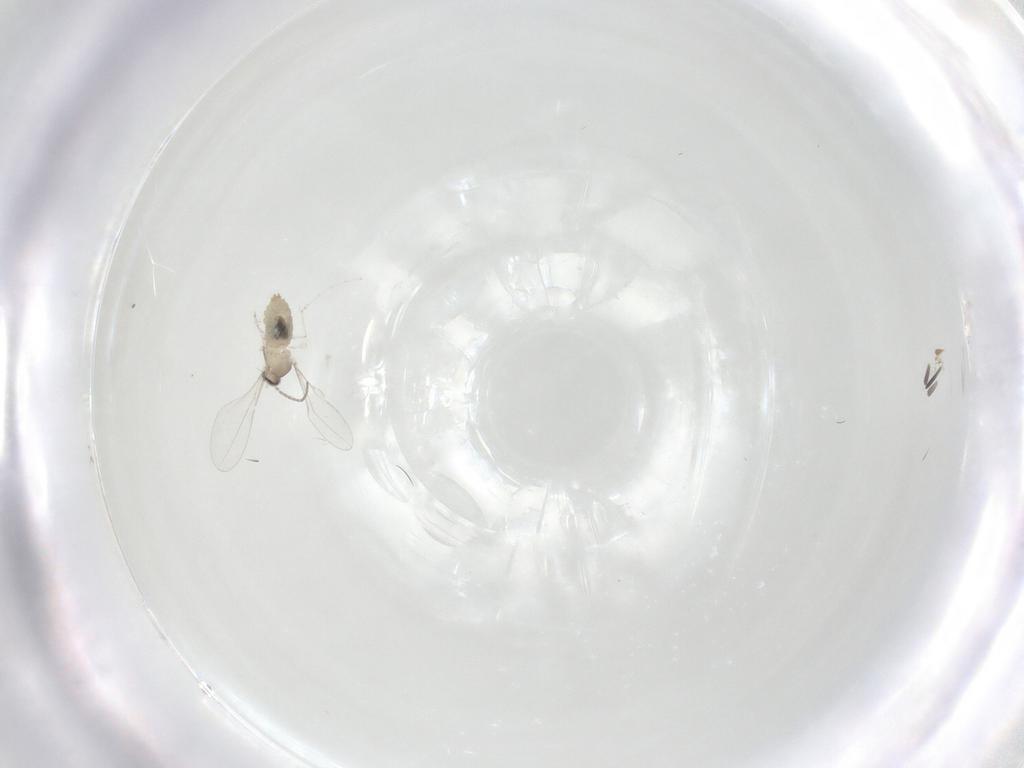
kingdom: Animalia
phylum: Arthropoda
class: Insecta
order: Diptera
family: Cecidomyiidae
